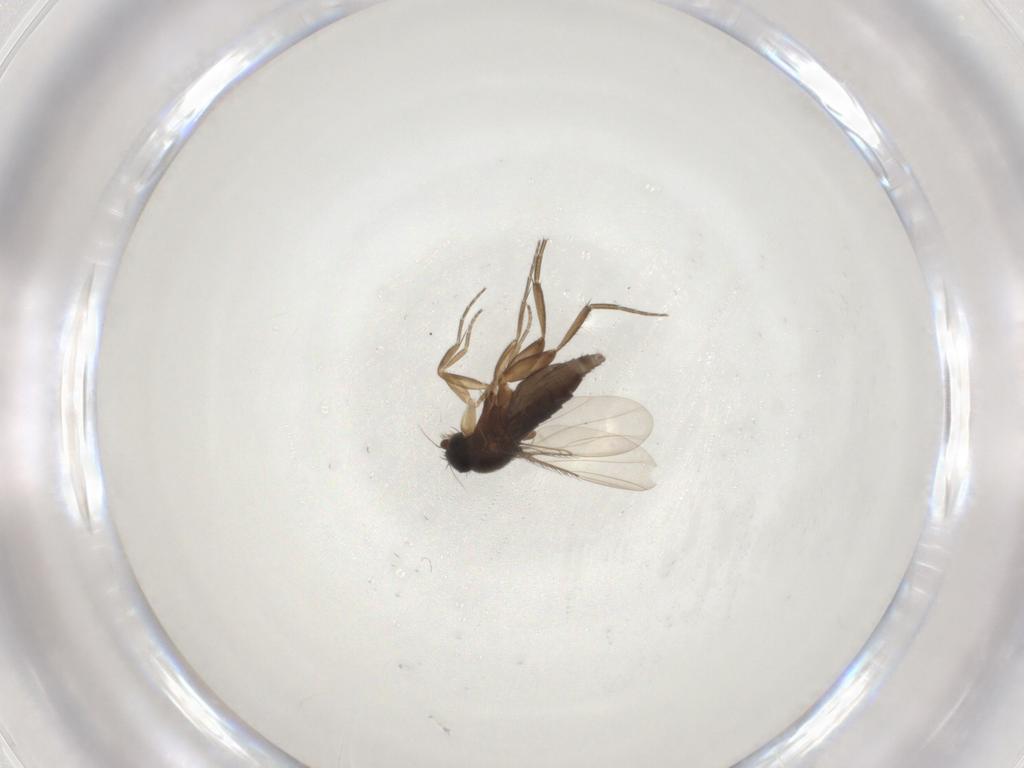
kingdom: Animalia
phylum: Arthropoda
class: Insecta
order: Diptera
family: Phoridae
